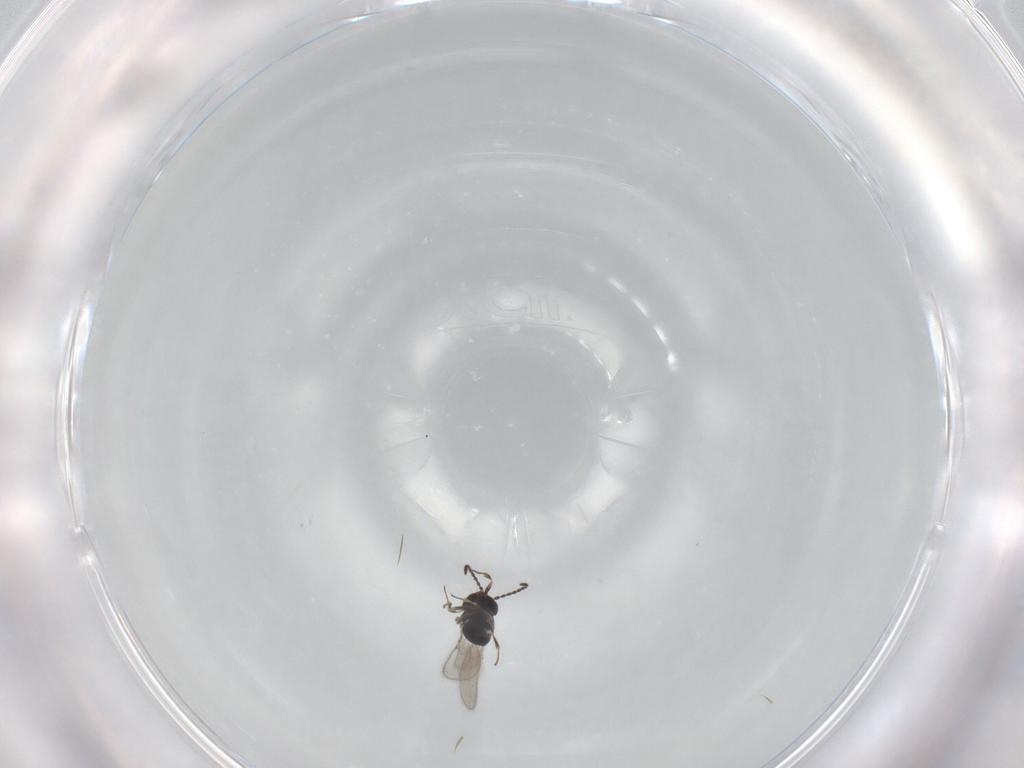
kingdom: Animalia
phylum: Arthropoda
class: Insecta
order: Hymenoptera
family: Scelionidae
